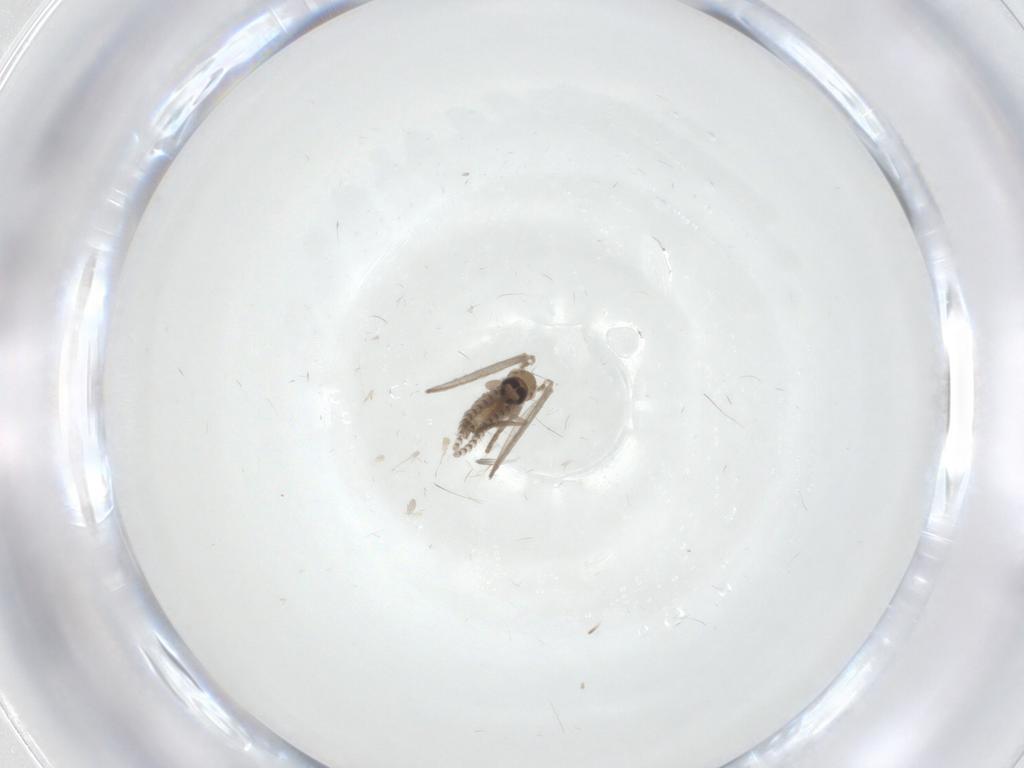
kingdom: Animalia
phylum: Arthropoda
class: Insecta
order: Diptera
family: Psychodidae
